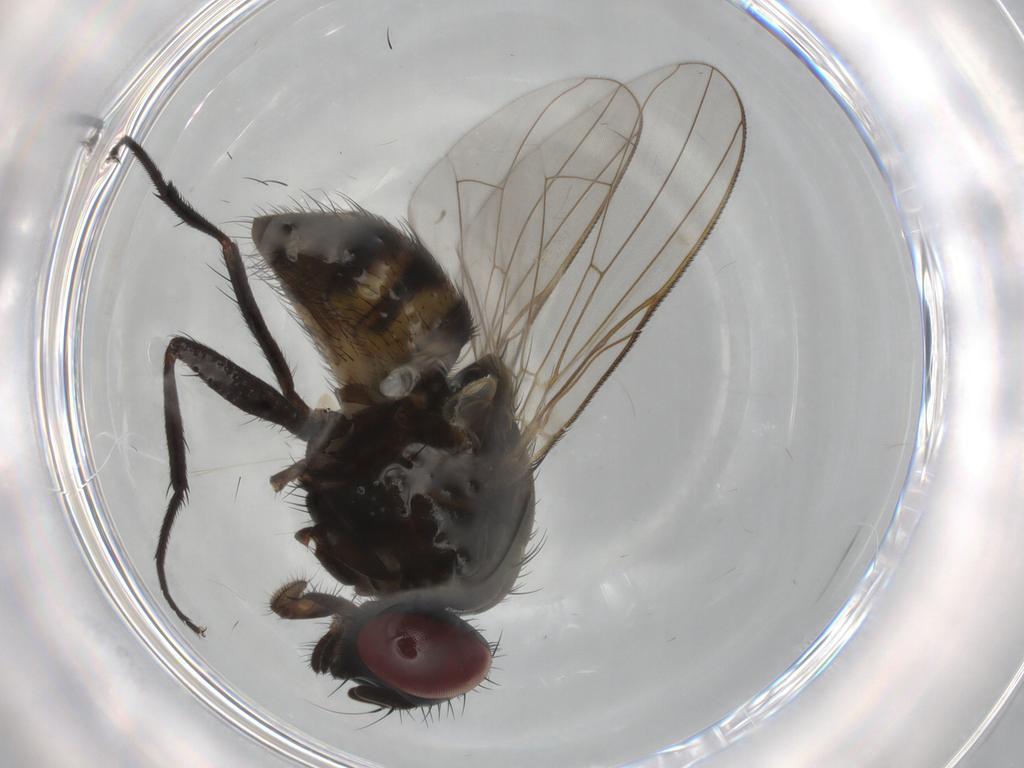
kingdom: Animalia
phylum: Arthropoda
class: Insecta
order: Diptera
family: Muscidae
